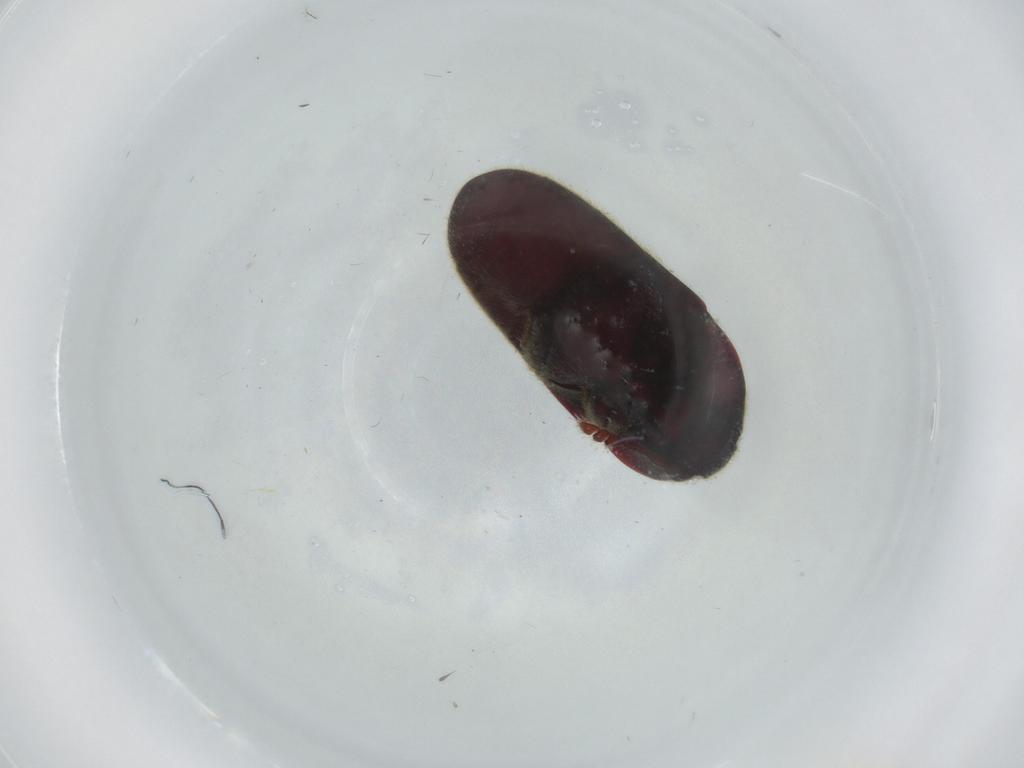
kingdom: Animalia
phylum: Arthropoda
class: Insecta
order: Coleoptera
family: Throscidae
